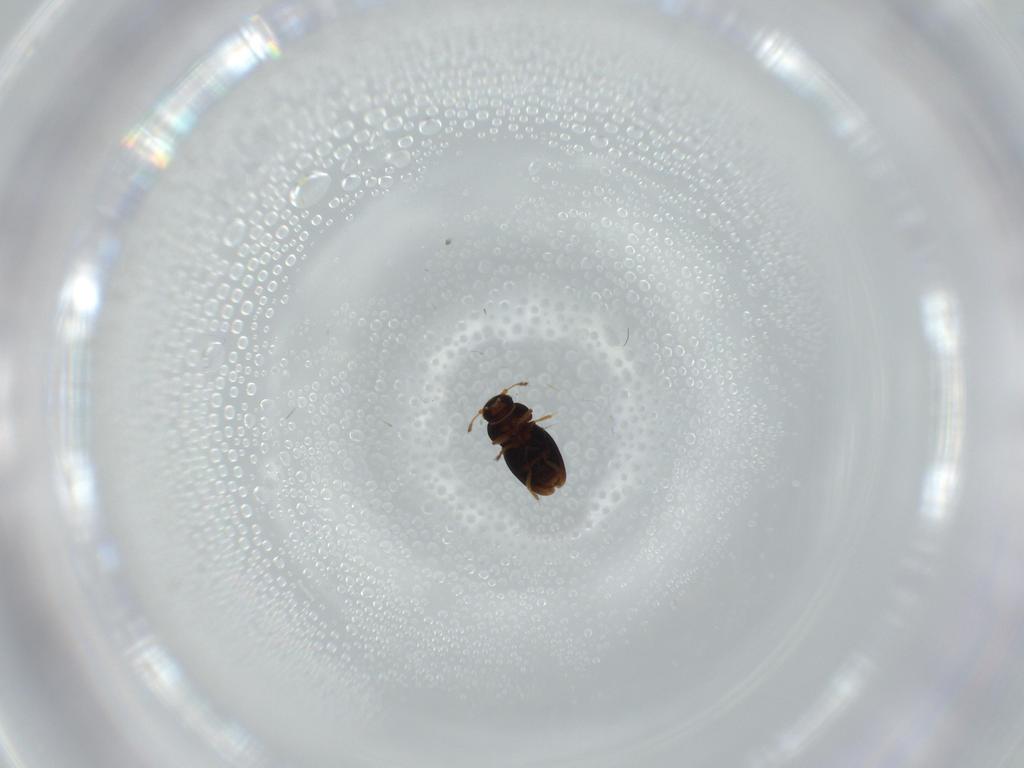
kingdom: Animalia
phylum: Arthropoda
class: Insecta
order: Coleoptera
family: Ptiliidae
